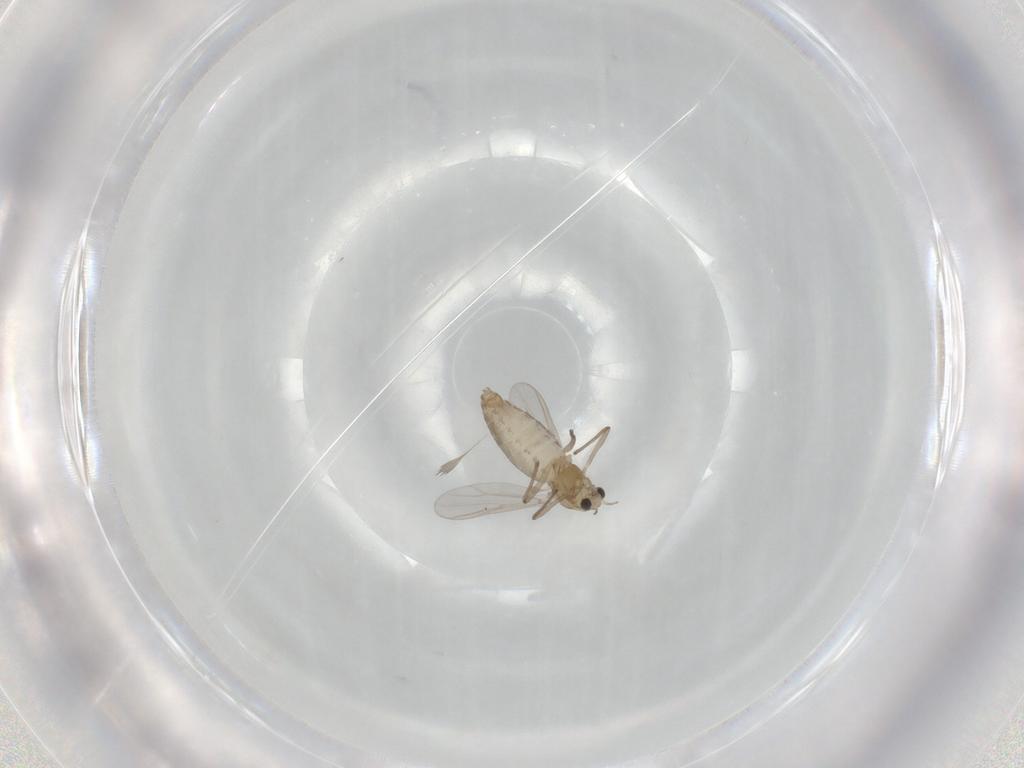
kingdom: Animalia
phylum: Arthropoda
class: Insecta
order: Diptera
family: Chironomidae
